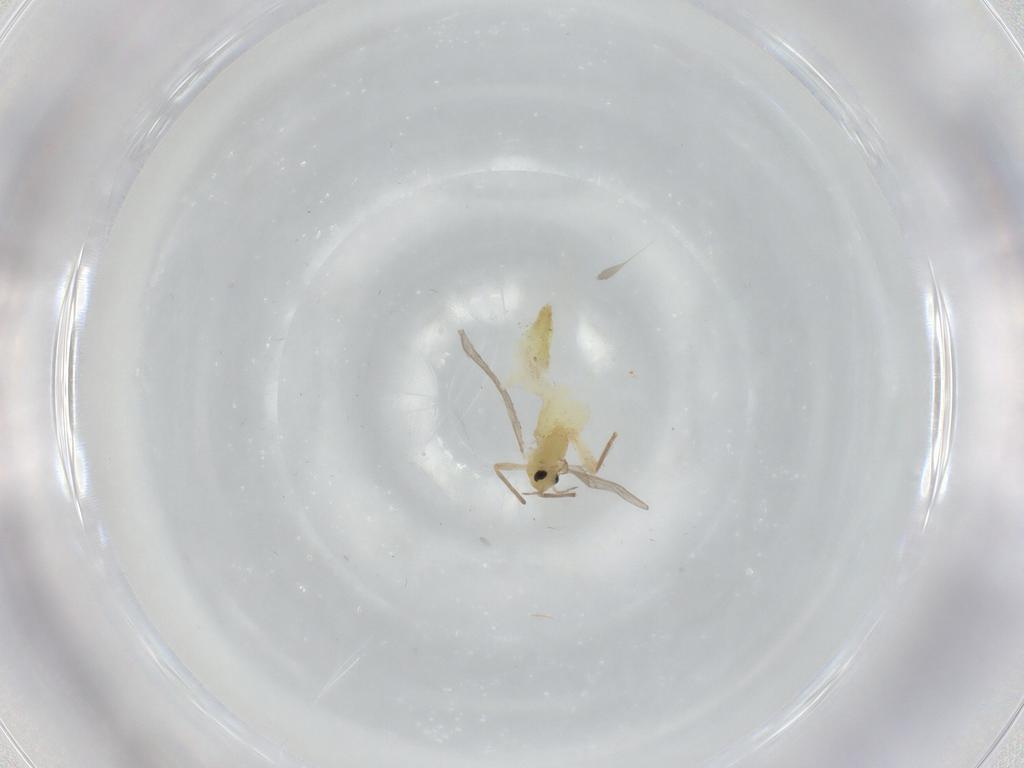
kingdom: Animalia
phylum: Arthropoda
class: Insecta
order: Diptera
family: Chironomidae
